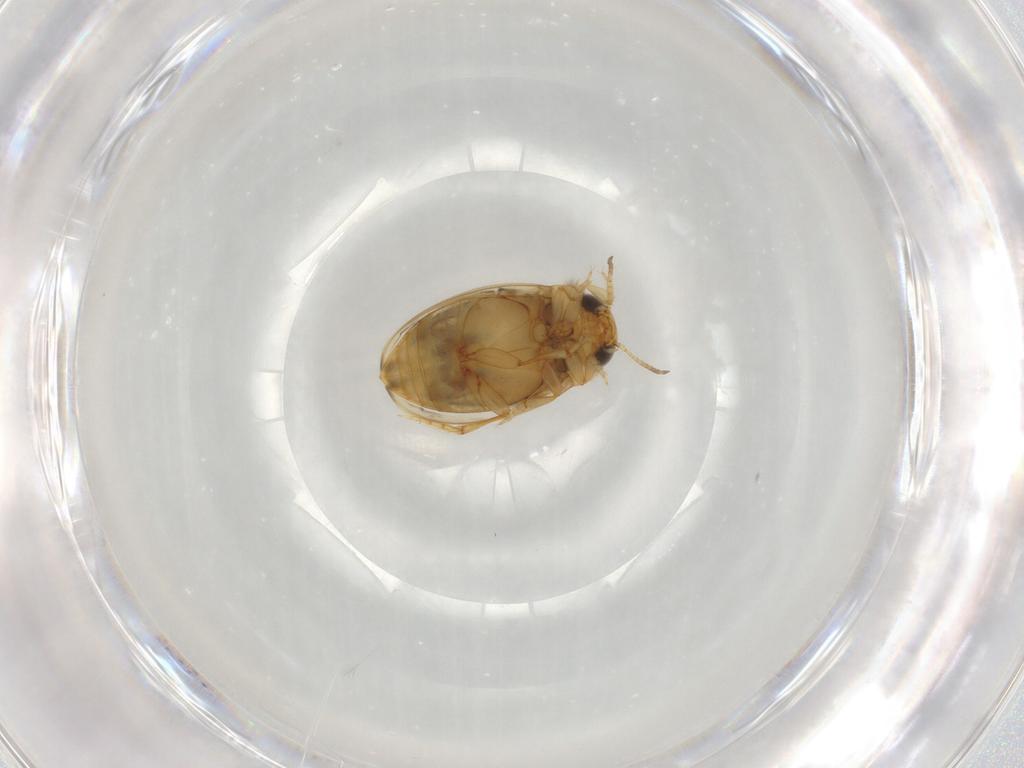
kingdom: Animalia
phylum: Arthropoda
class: Insecta
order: Coleoptera
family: Dytiscidae
